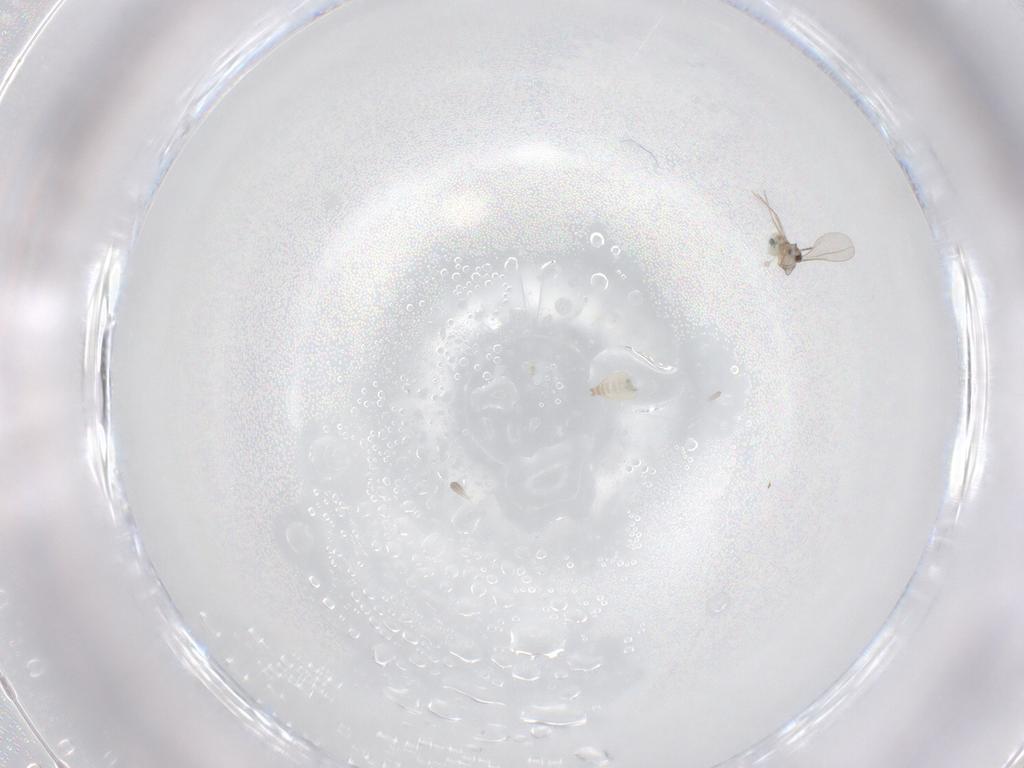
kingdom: Animalia
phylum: Arthropoda
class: Insecta
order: Diptera
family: Cecidomyiidae
